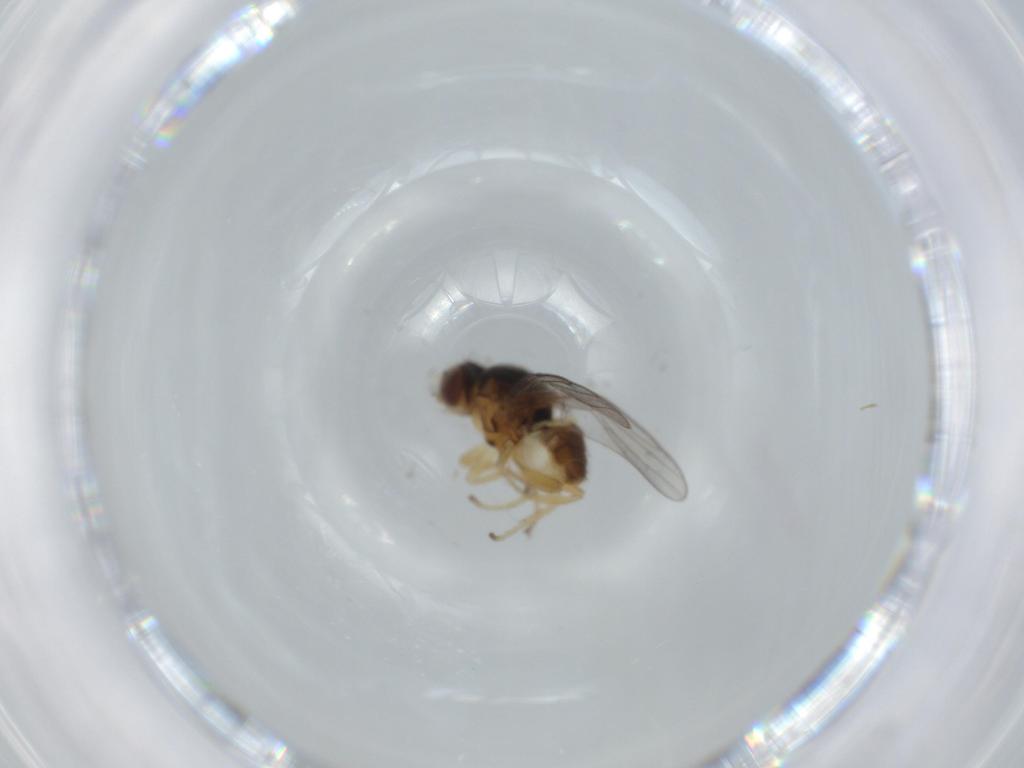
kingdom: Animalia
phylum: Arthropoda
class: Insecta
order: Diptera
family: Chloropidae
